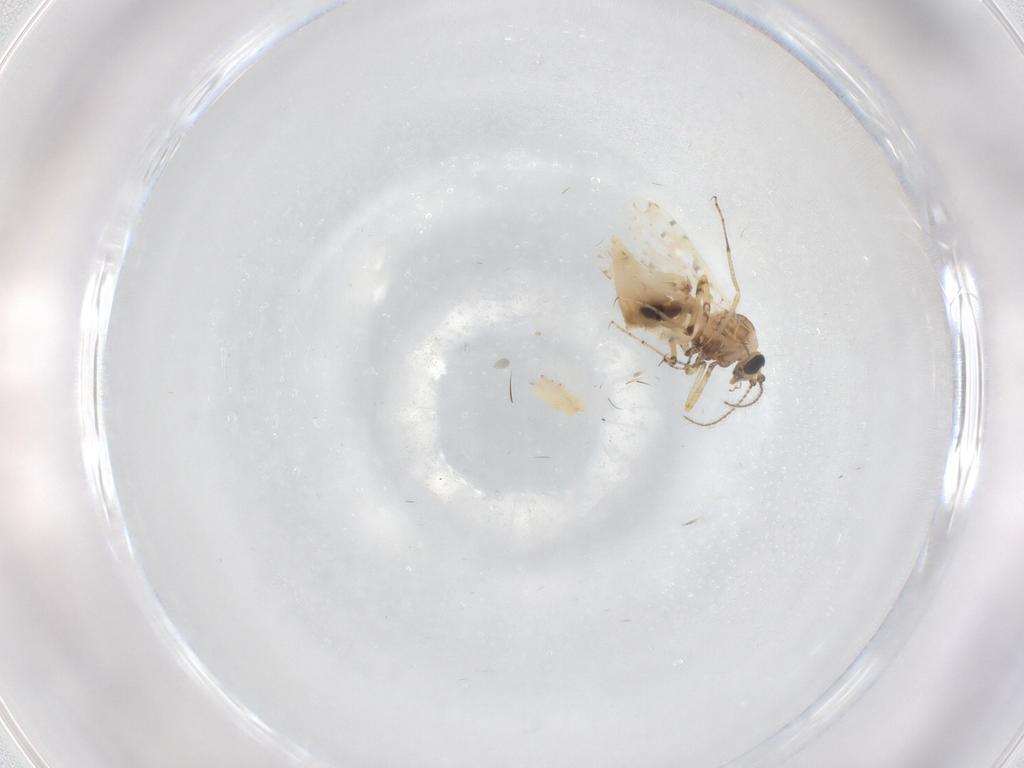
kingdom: Animalia
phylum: Arthropoda
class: Insecta
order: Diptera
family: Ceratopogonidae
